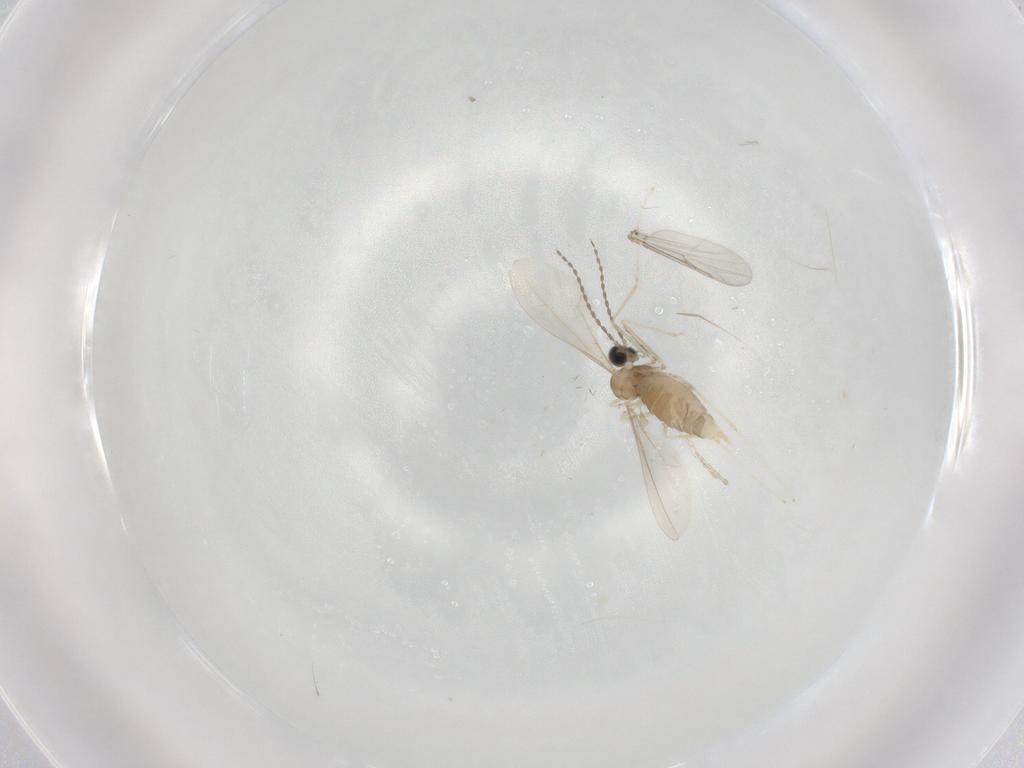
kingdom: Animalia
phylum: Arthropoda
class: Insecta
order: Diptera
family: Cecidomyiidae
